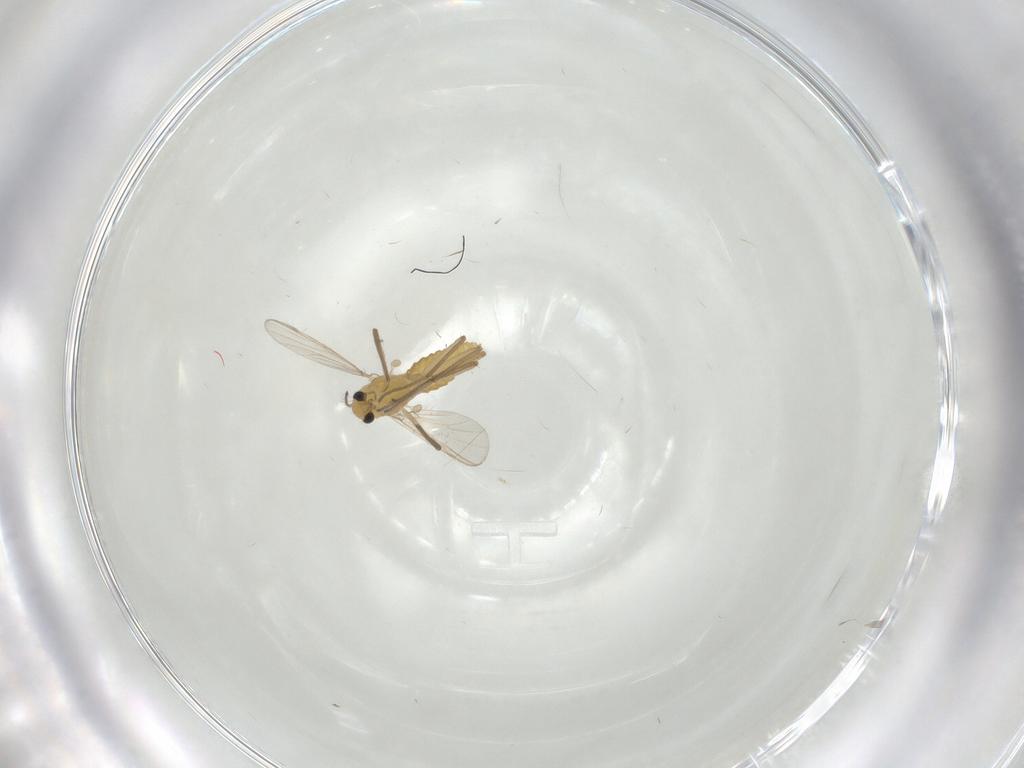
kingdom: Animalia
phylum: Arthropoda
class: Insecta
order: Diptera
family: Chironomidae
